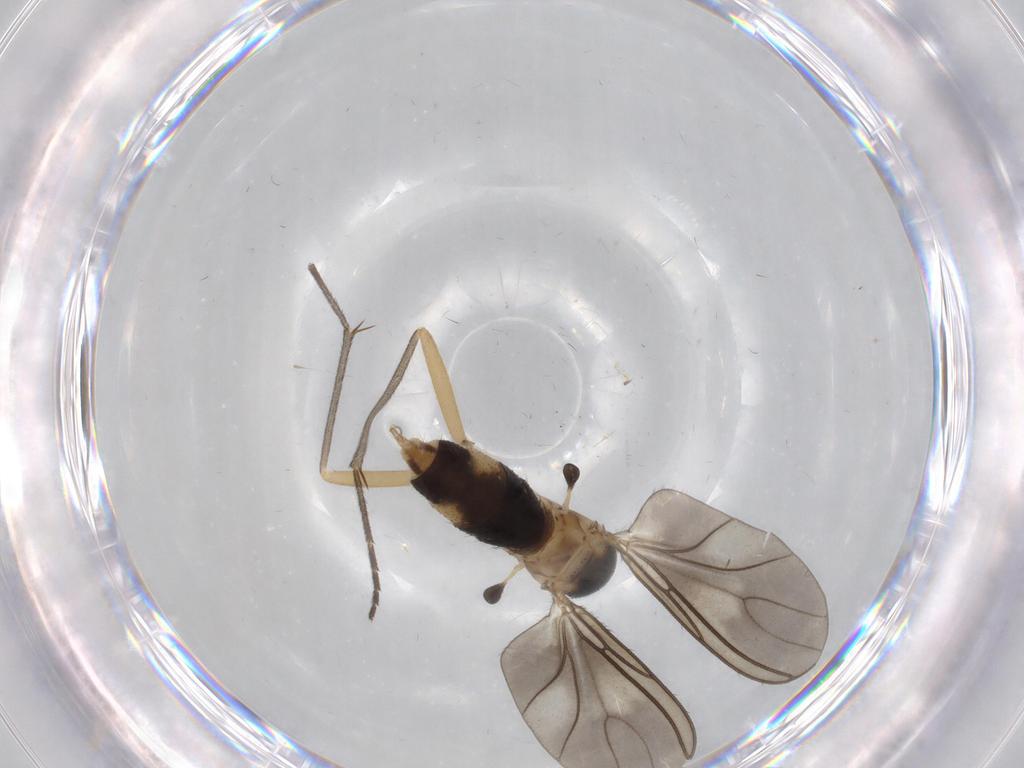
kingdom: Animalia
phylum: Arthropoda
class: Insecta
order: Diptera
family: Sciaridae
